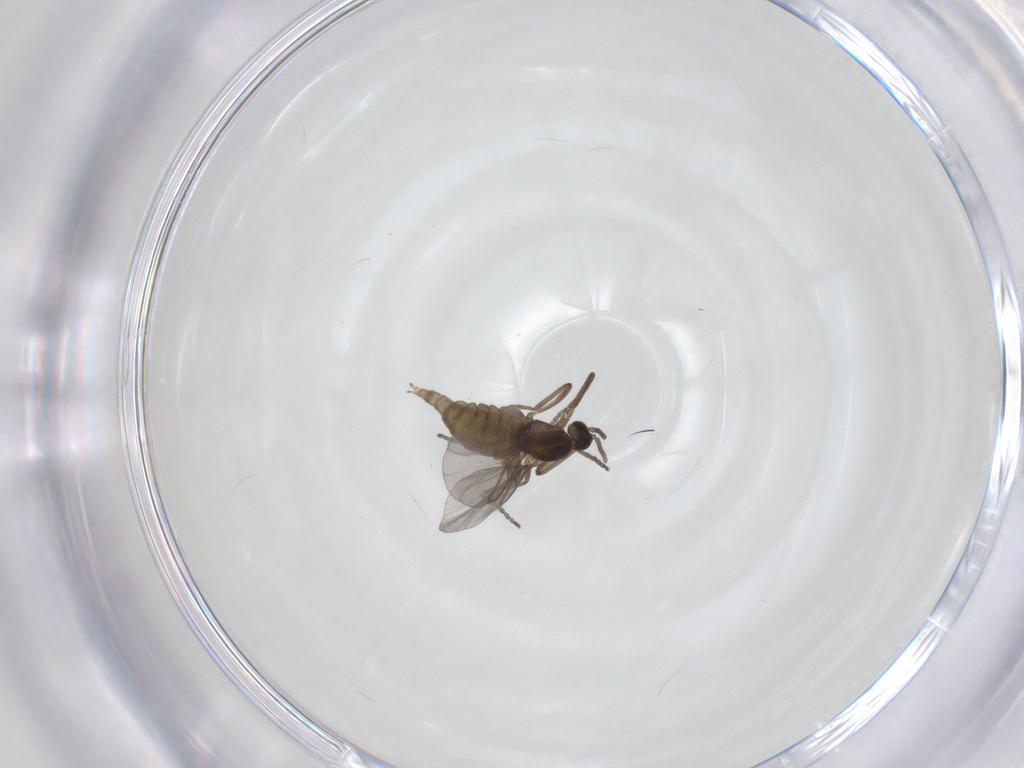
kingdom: Animalia
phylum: Arthropoda
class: Insecta
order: Diptera
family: Cecidomyiidae
